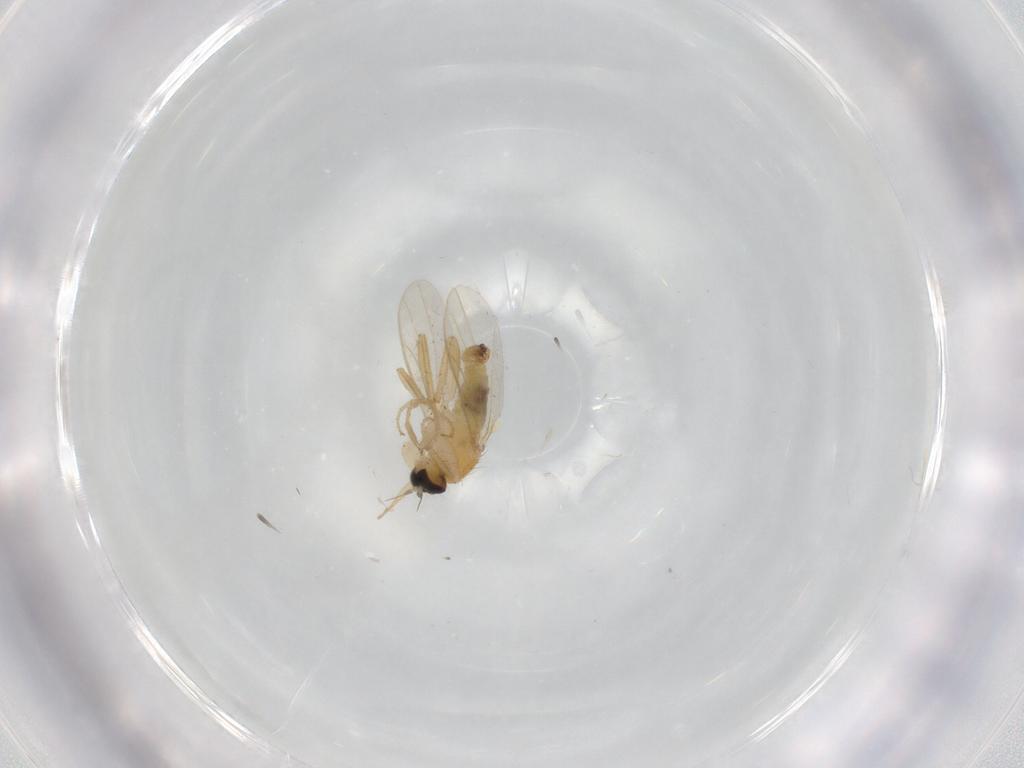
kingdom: Animalia
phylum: Arthropoda
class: Insecta
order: Diptera
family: Hybotidae
